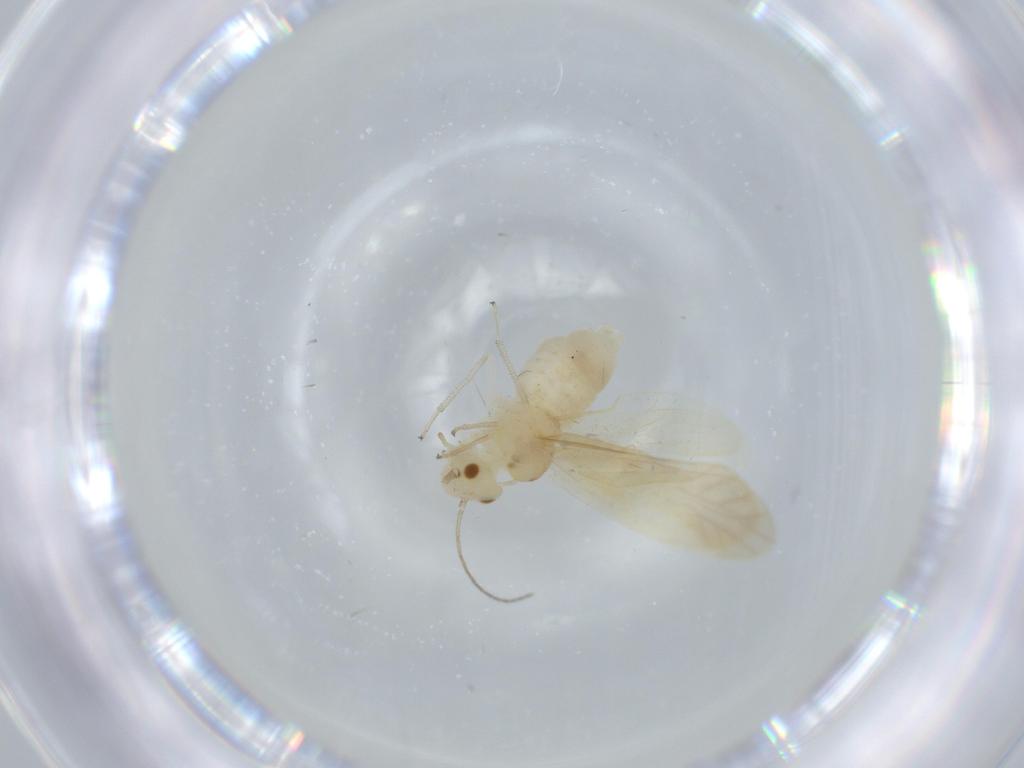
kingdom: Animalia
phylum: Arthropoda
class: Insecta
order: Psocodea
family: Caeciliusidae
